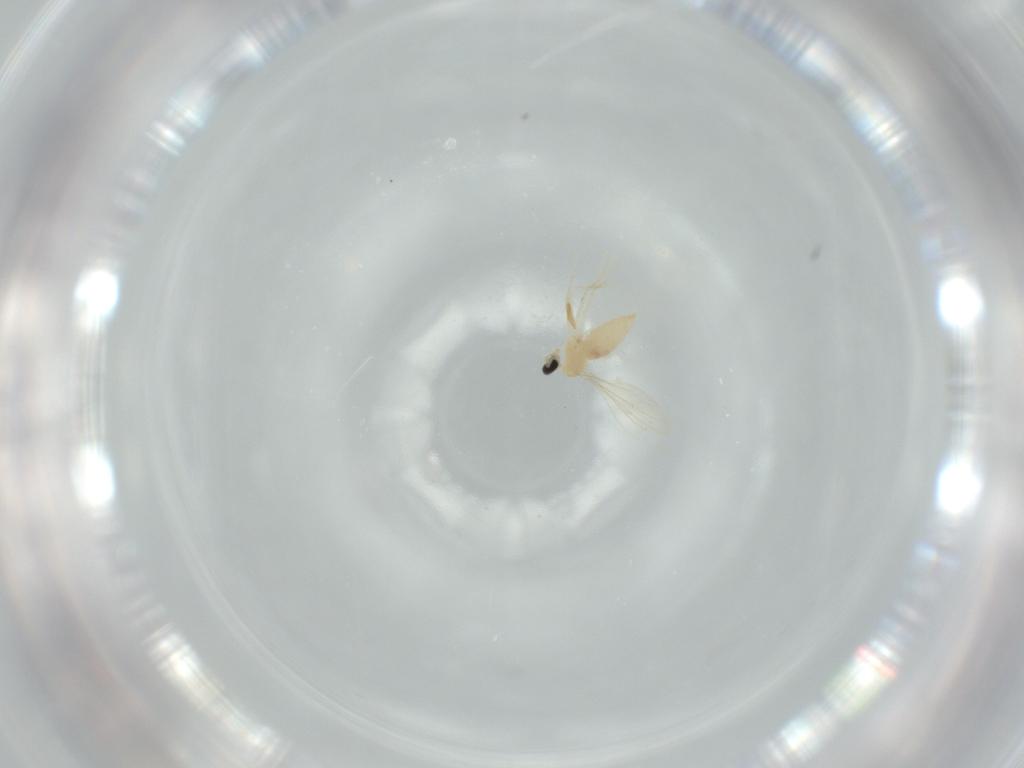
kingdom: Animalia
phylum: Arthropoda
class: Insecta
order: Diptera
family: Cecidomyiidae
